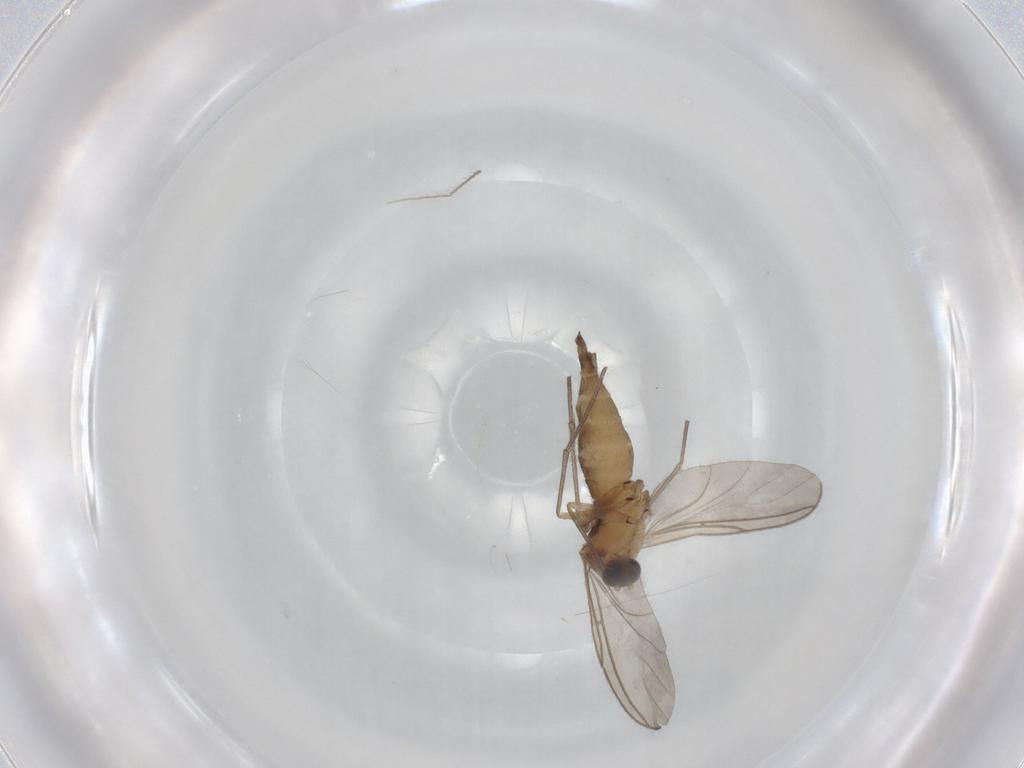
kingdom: Animalia
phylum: Arthropoda
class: Insecta
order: Diptera
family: Sciaridae
